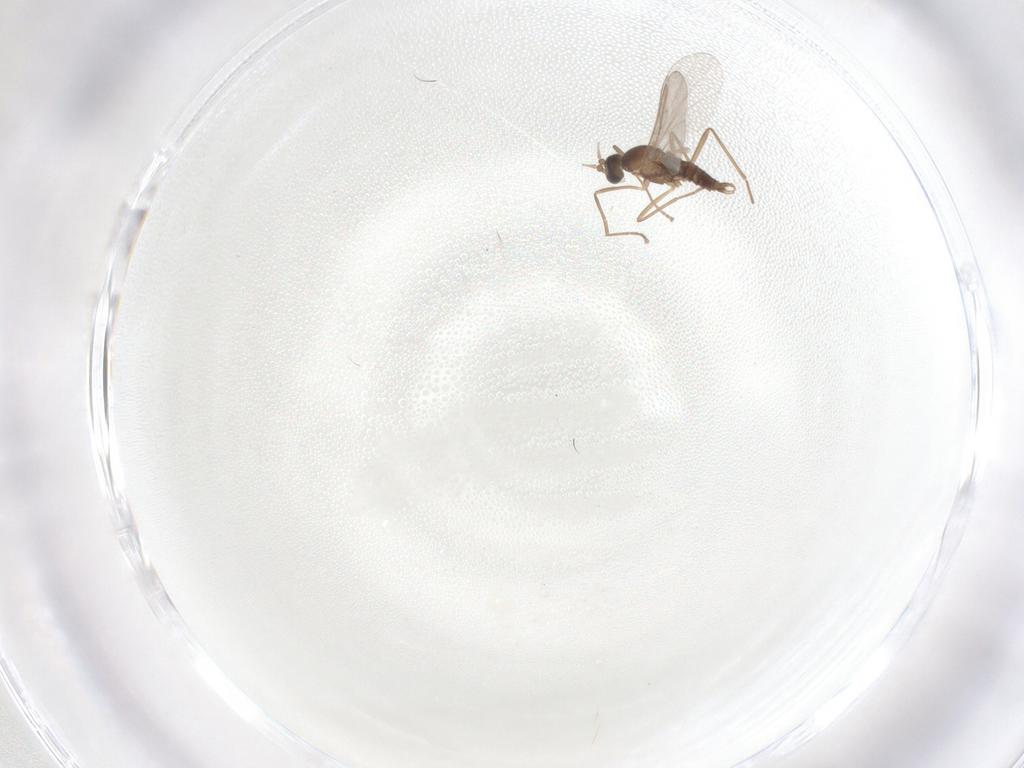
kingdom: Animalia
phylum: Arthropoda
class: Insecta
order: Diptera
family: Cecidomyiidae
